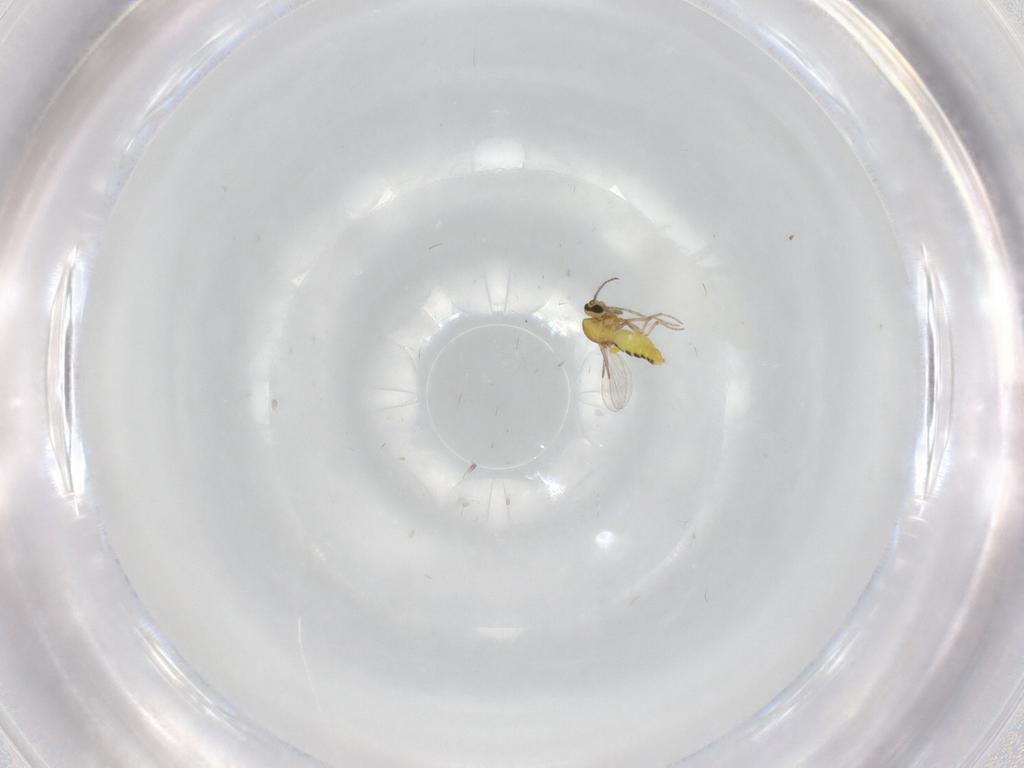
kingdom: Animalia
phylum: Arthropoda
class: Insecta
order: Diptera
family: Ceratopogonidae
